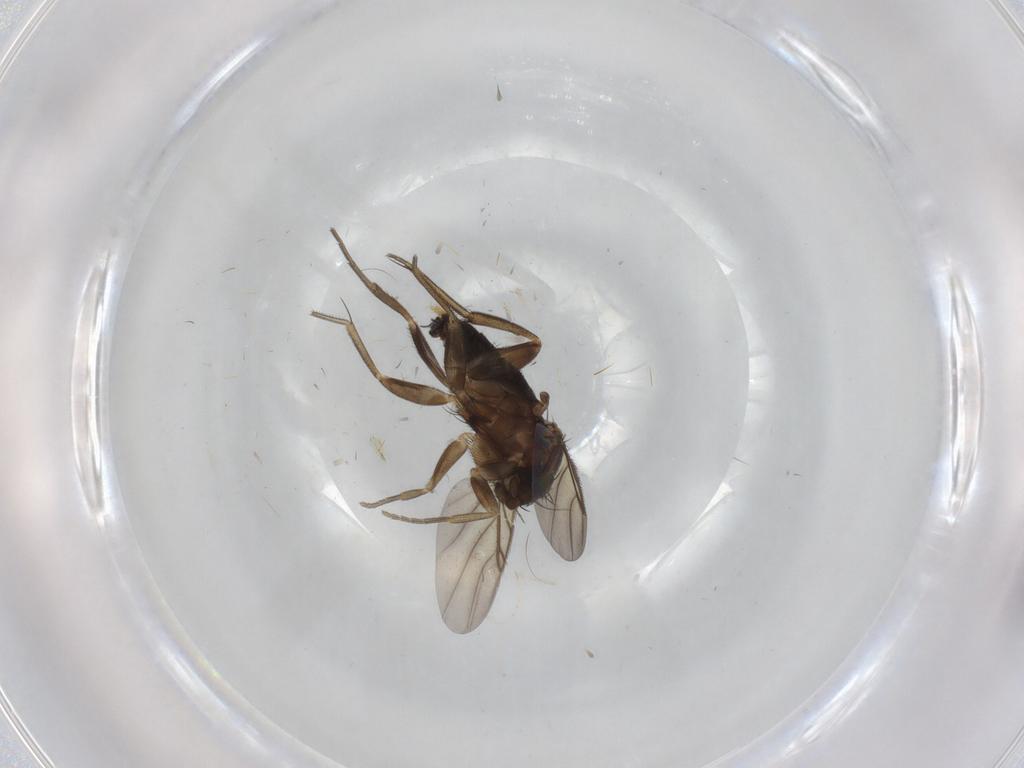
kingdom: Animalia
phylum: Arthropoda
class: Insecta
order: Diptera
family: Phoridae
